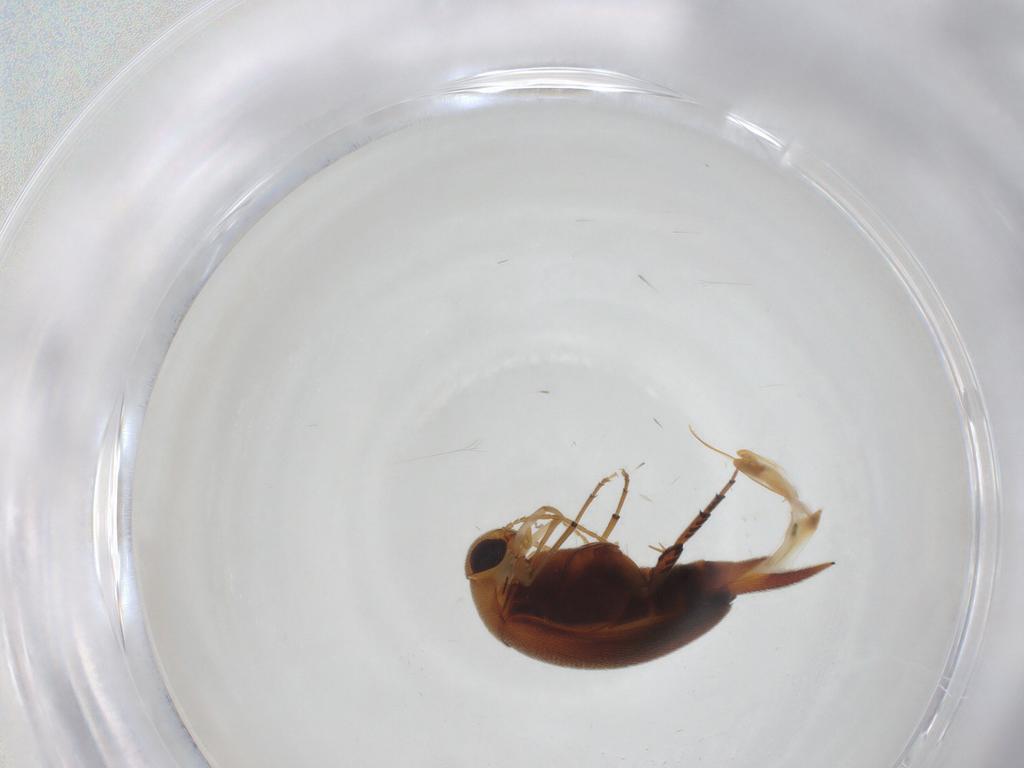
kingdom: Animalia
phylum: Arthropoda
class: Insecta
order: Coleoptera
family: Mordellidae
